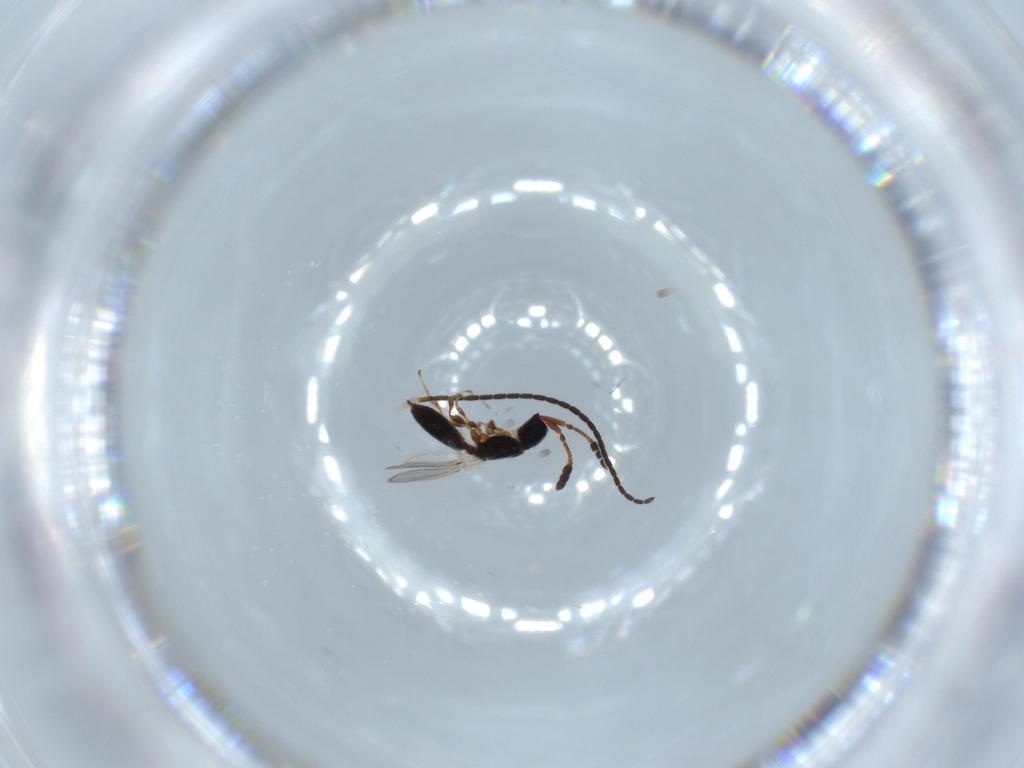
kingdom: Animalia
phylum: Arthropoda
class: Insecta
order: Hymenoptera
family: Diapriidae
